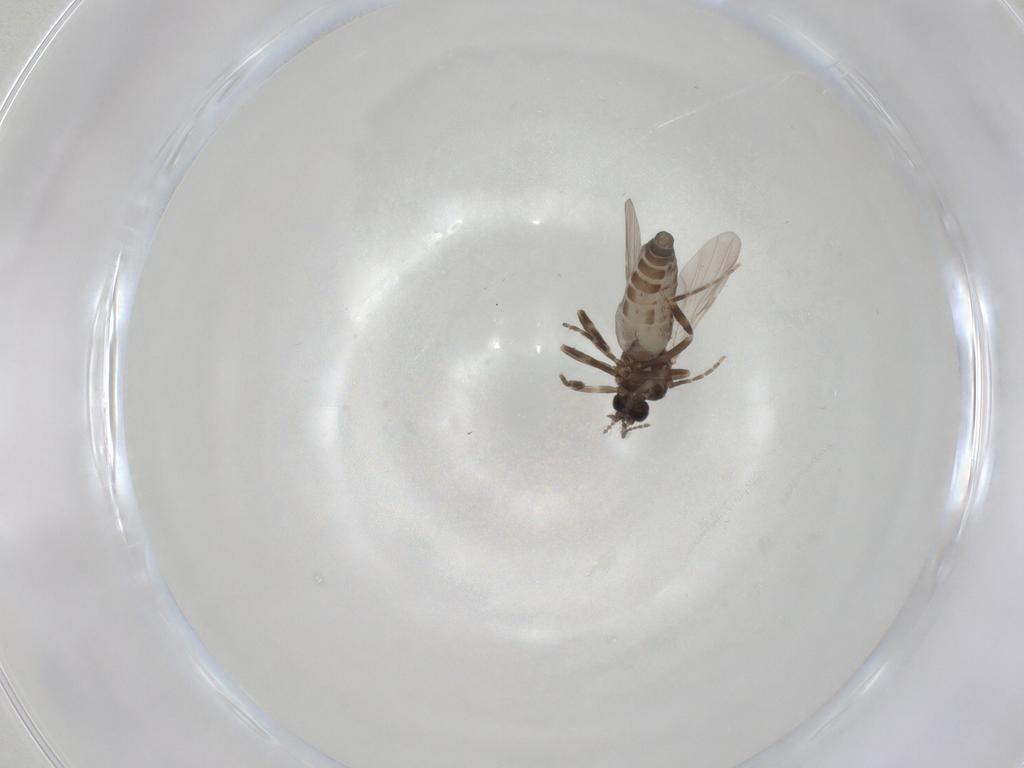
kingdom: Animalia
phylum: Arthropoda
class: Insecta
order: Diptera
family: Ceratopogonidae
